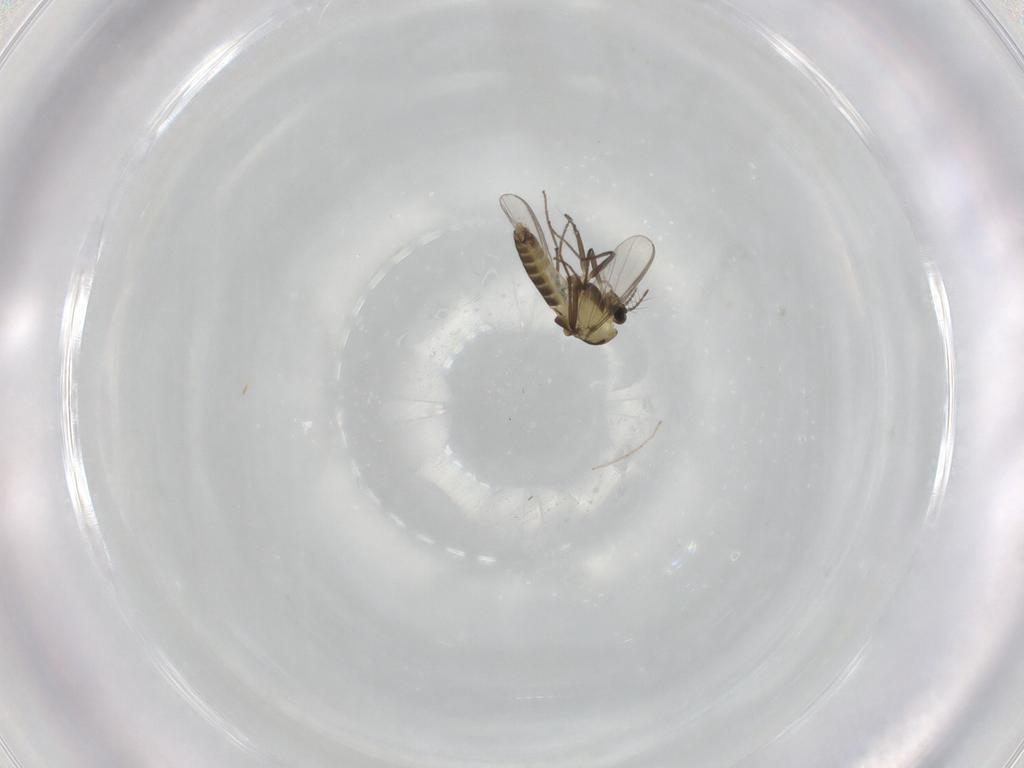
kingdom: Animalia
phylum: Arthropoda
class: Insecta
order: Diptera
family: Chironomidae
